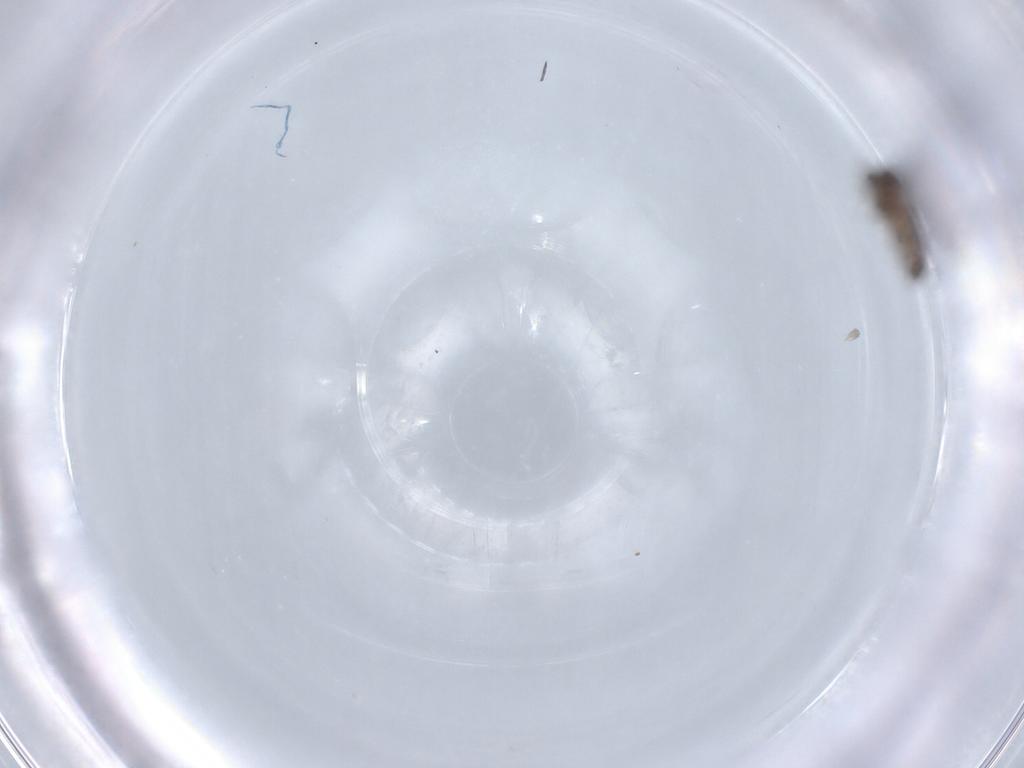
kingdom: Animalia
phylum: Arthropoda
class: Insecta
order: Diptera
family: Chironomidae
